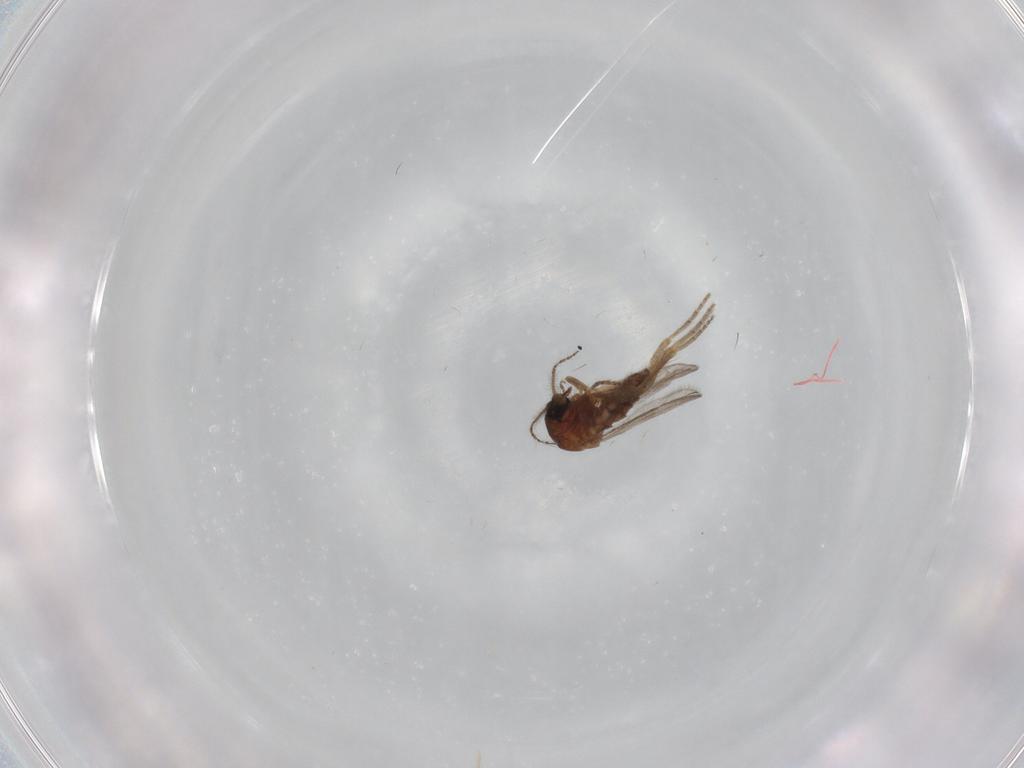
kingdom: Animalia
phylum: Arthropoda
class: Insecta
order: Diptera
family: Ceratopogonidae
